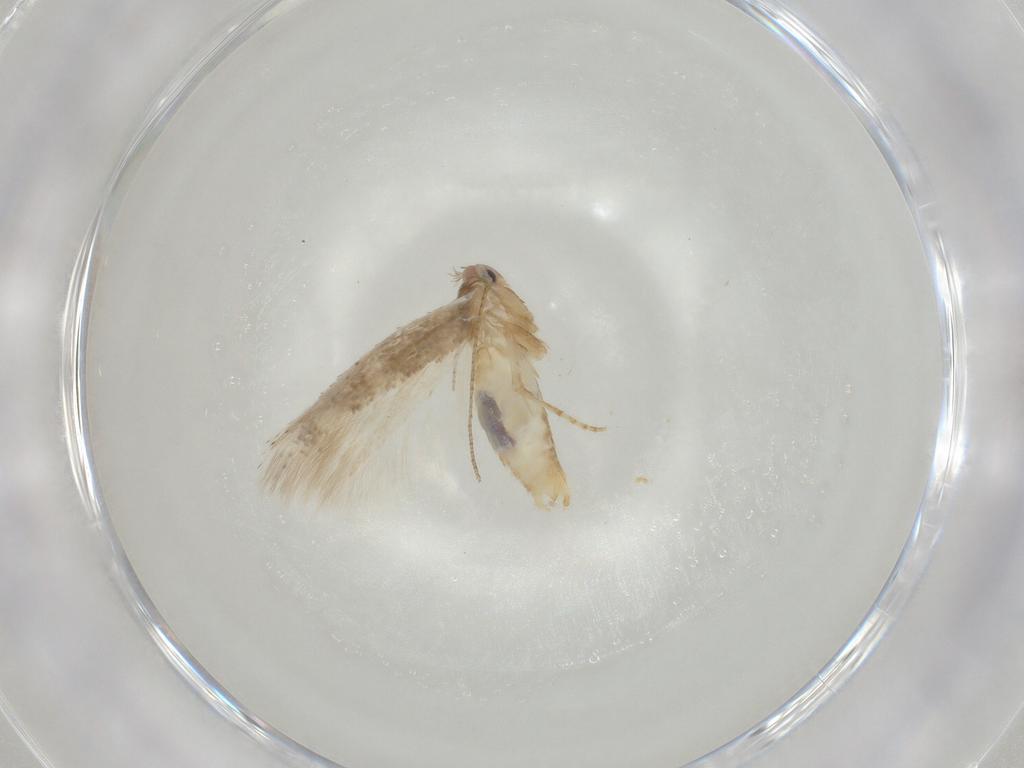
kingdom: Animalia
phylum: Arthropoda
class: Insecta
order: Lepidoptera
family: Bucculatricidae
